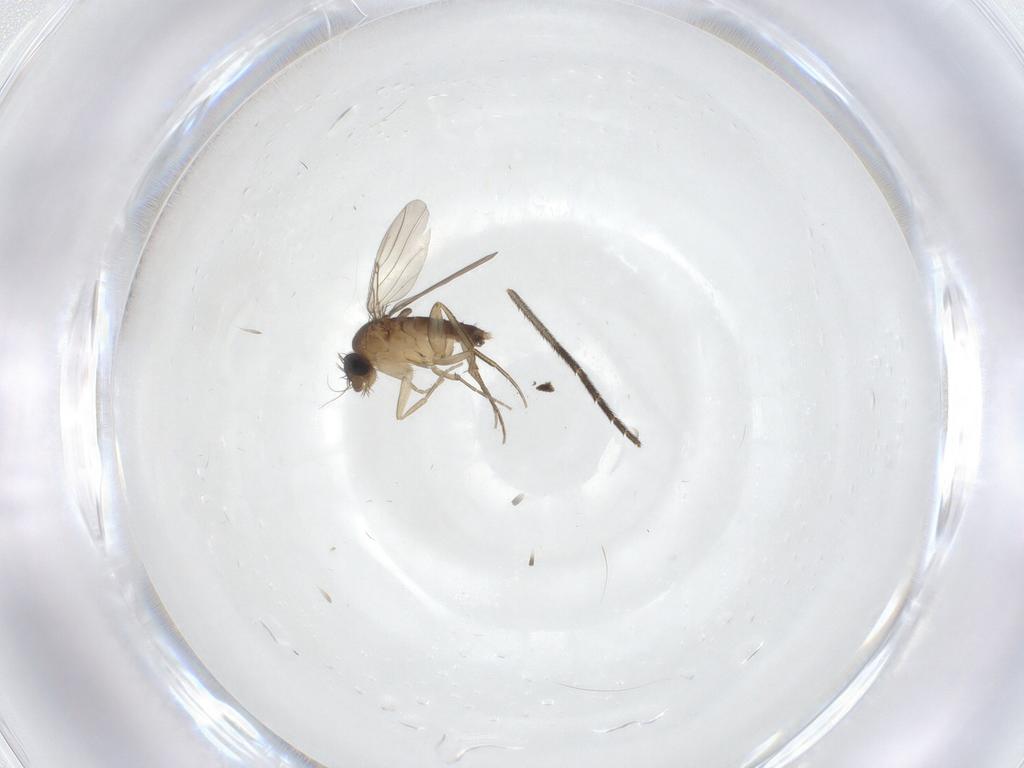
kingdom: Animalia
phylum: Arthropoda
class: Insecta
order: Diptera
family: Phoridae
